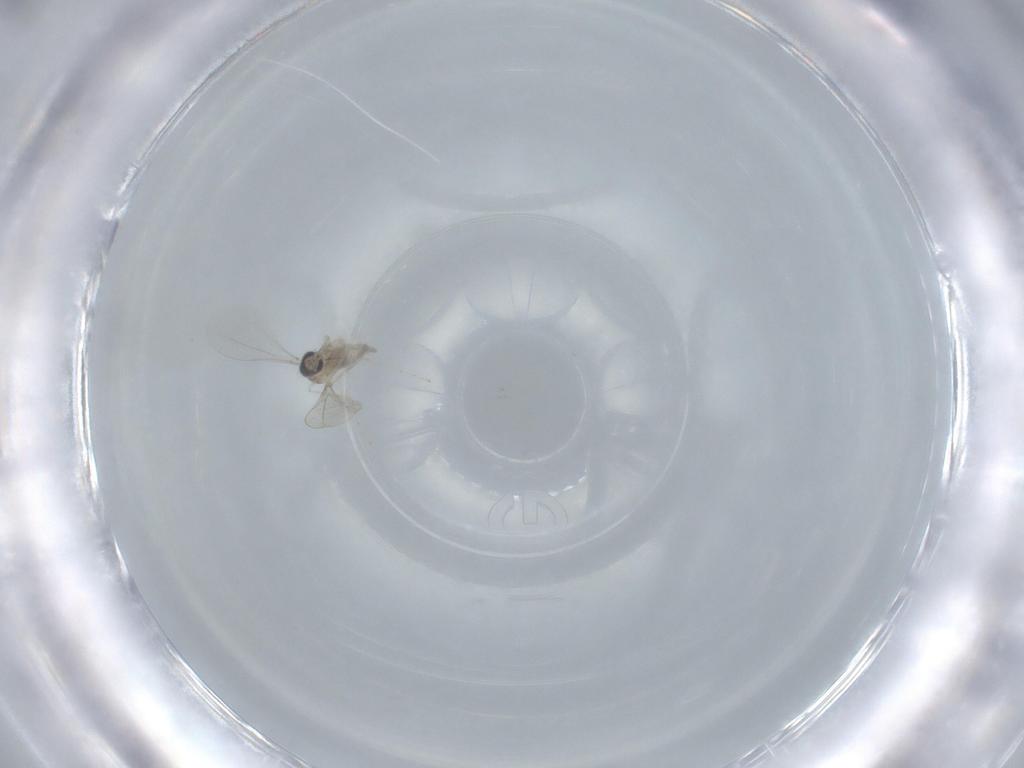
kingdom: Animalia
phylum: Arthropoda
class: Insecta
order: Diptera
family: Cecidomyiidae
